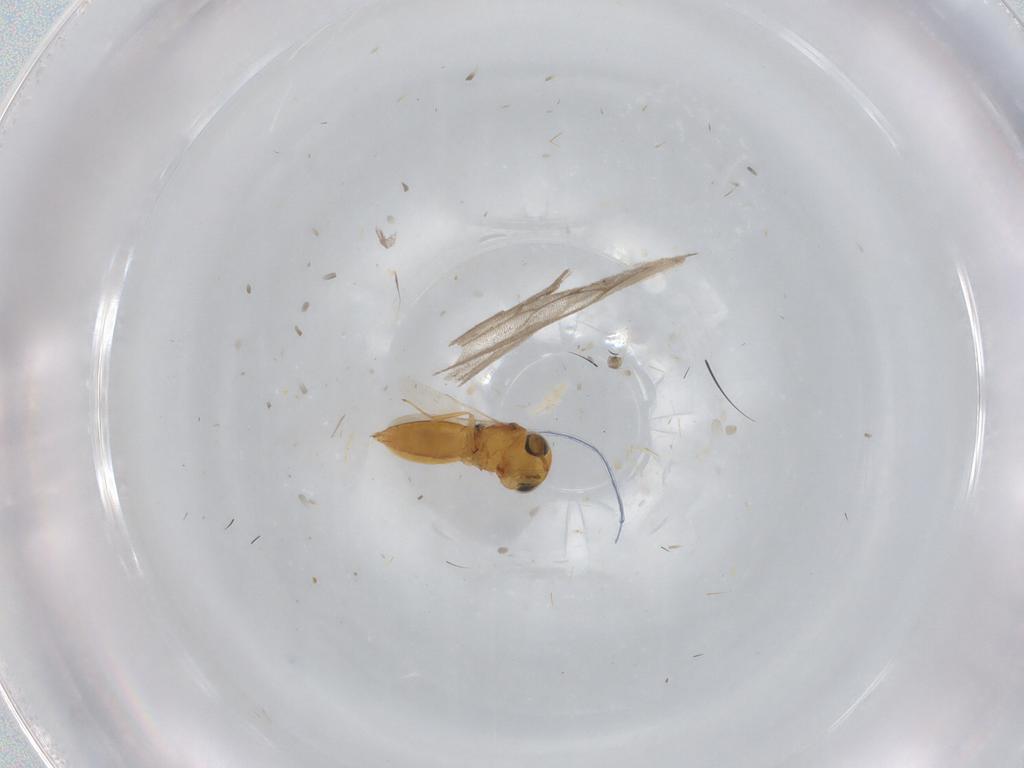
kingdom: Animalia
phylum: Arthropoda
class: Insecta
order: Hymenoptera
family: Scelionidae
